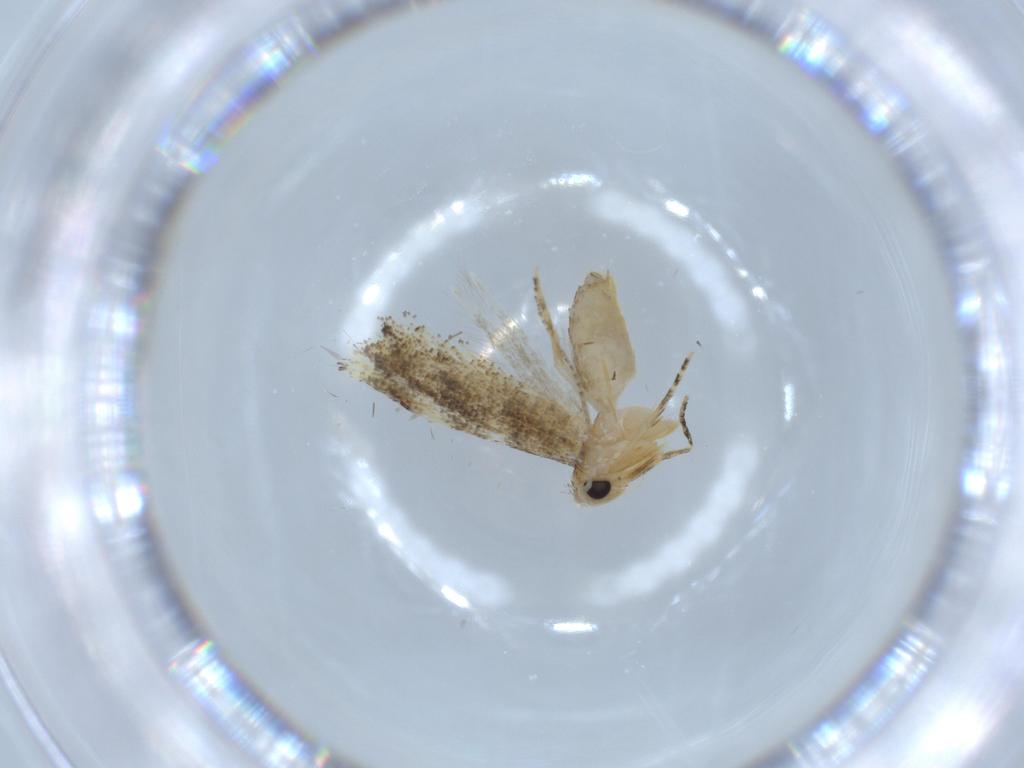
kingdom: Animalia
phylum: Arthropoda
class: Insecta
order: Lepidoptera
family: Bucculatricidae
